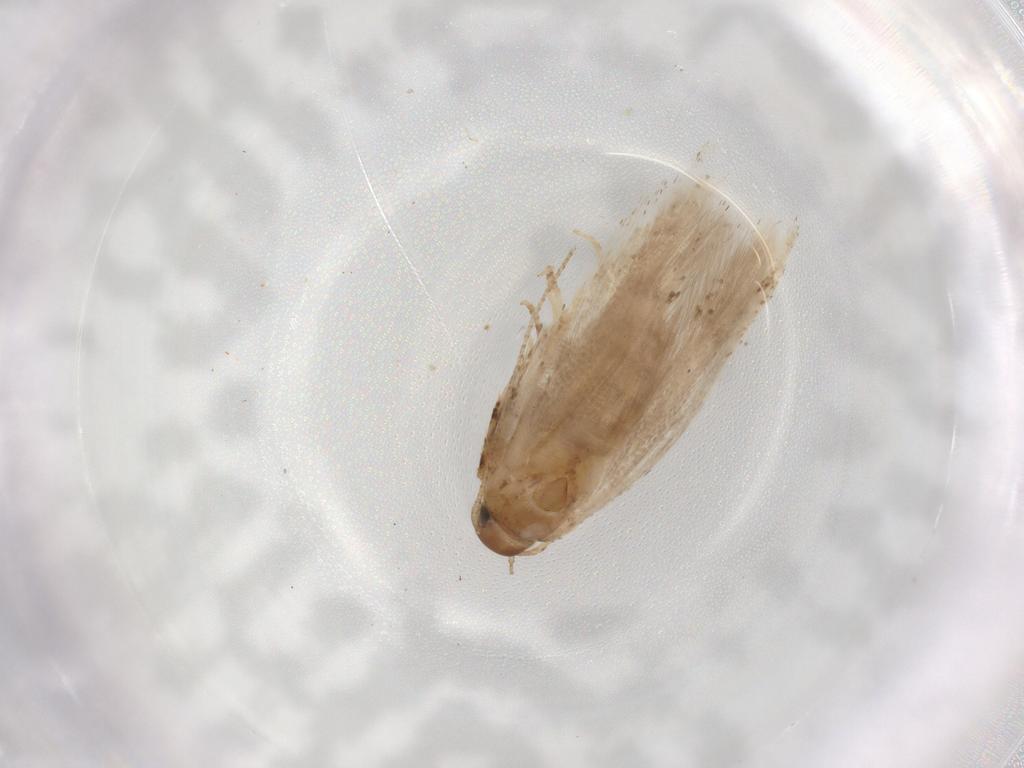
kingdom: Animalia
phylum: Arthropoda
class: Insecta
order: Lepidoptera
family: Gelechiidae
